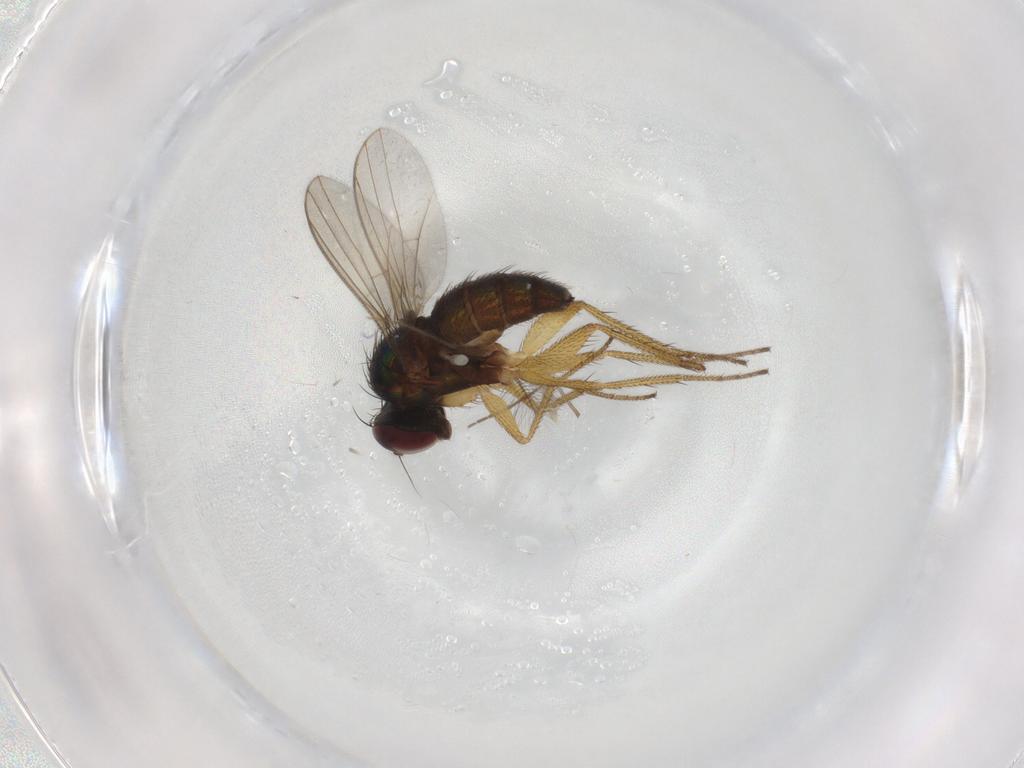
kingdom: Animalia
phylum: Arthropoda
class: Insecta
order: Diptera
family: Chironomidae
